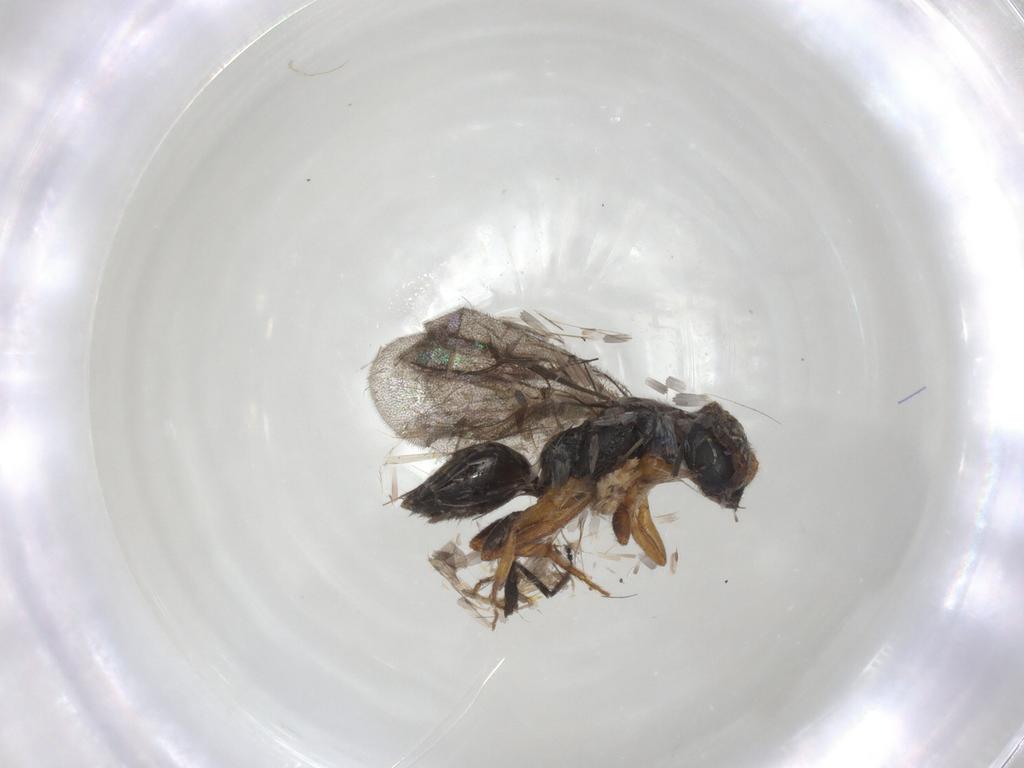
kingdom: Animalia
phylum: Arthropoda
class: Insecta
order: Hymenoptera
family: Bethylidae
